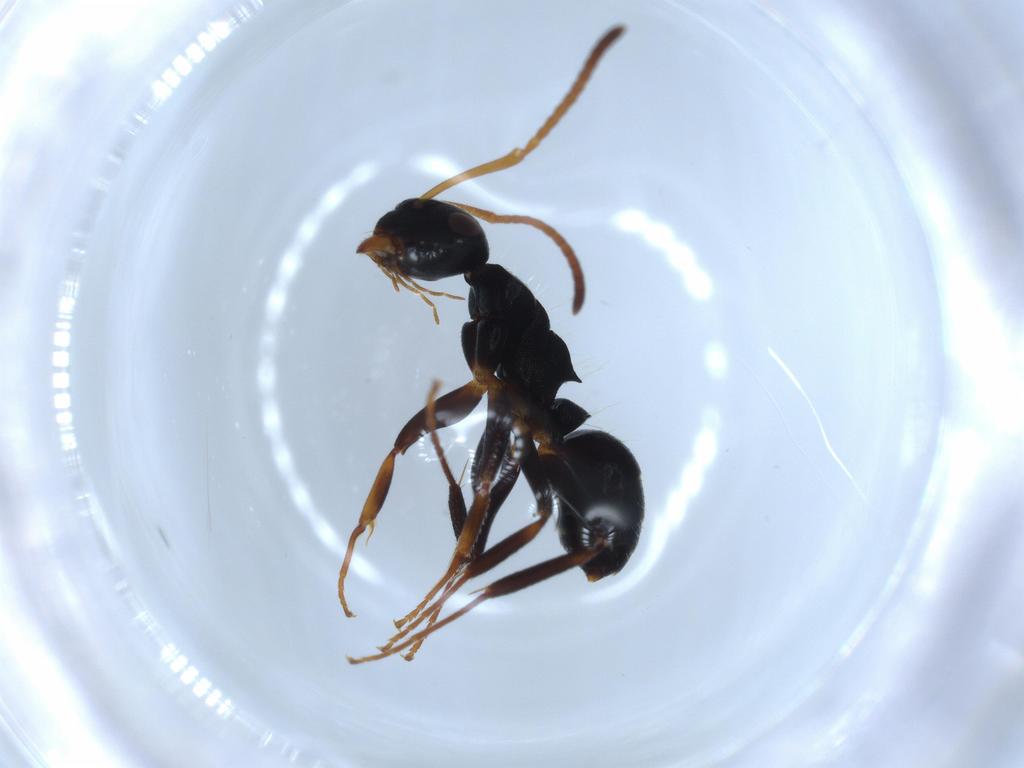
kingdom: Animalia
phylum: Arthropoda
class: Insecta
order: Hymenoptera
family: Formicidae
